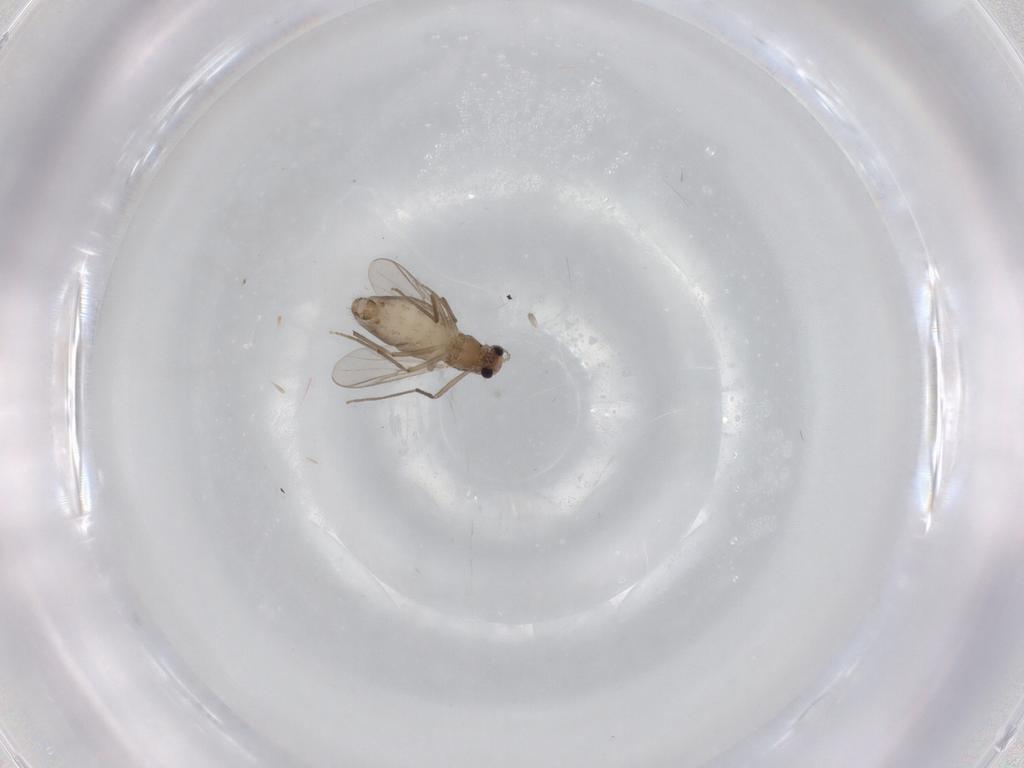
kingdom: Animalia
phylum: Arthropoda
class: Insecta
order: Diptera
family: Chironomidae
